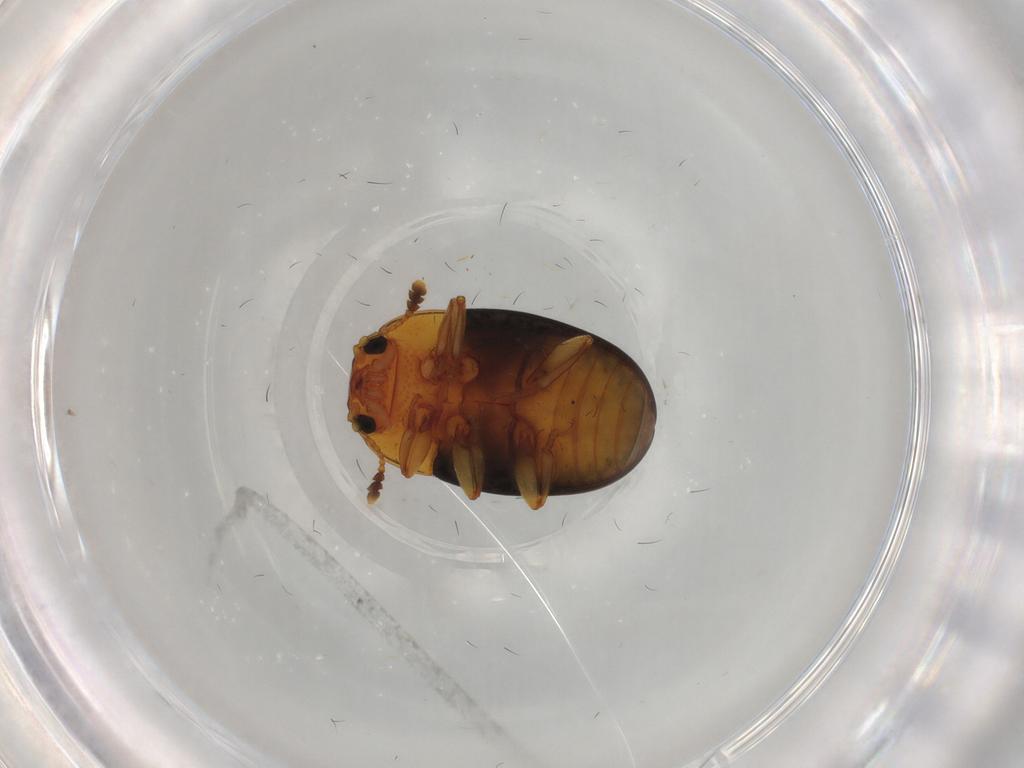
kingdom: Animalia
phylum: Arthropoda
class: Insecta
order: Coleoptera
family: Erotylidae
